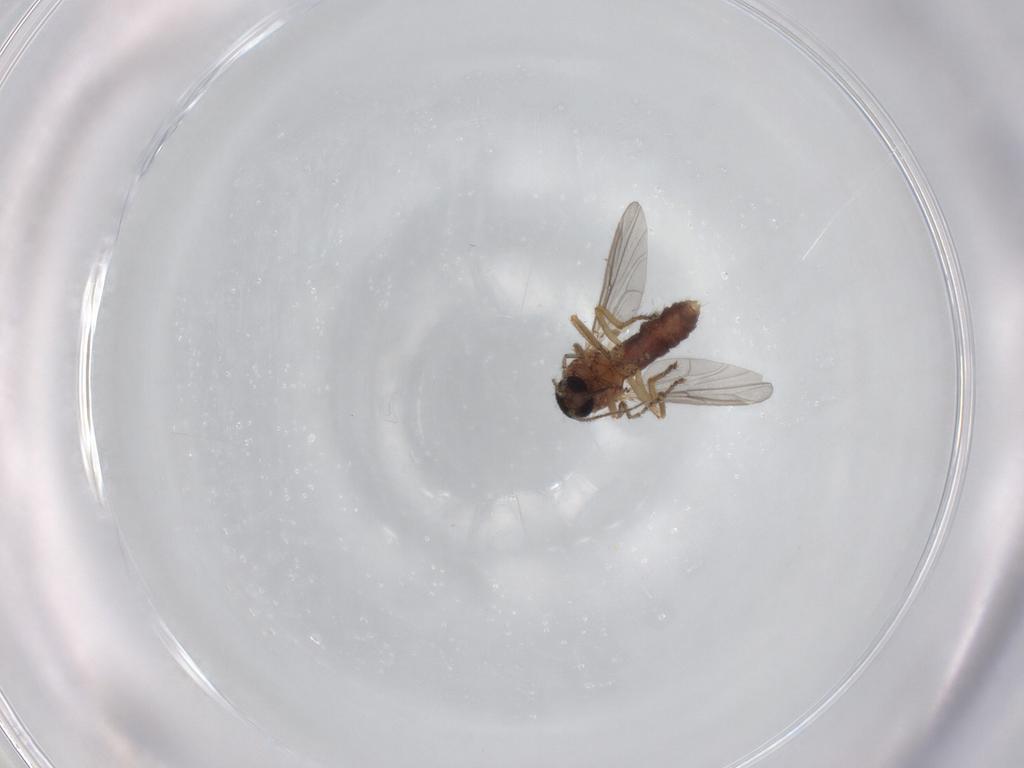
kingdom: Animalia
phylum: Arthropoda
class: Insecta
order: Diptera
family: Ceratopogonidae
